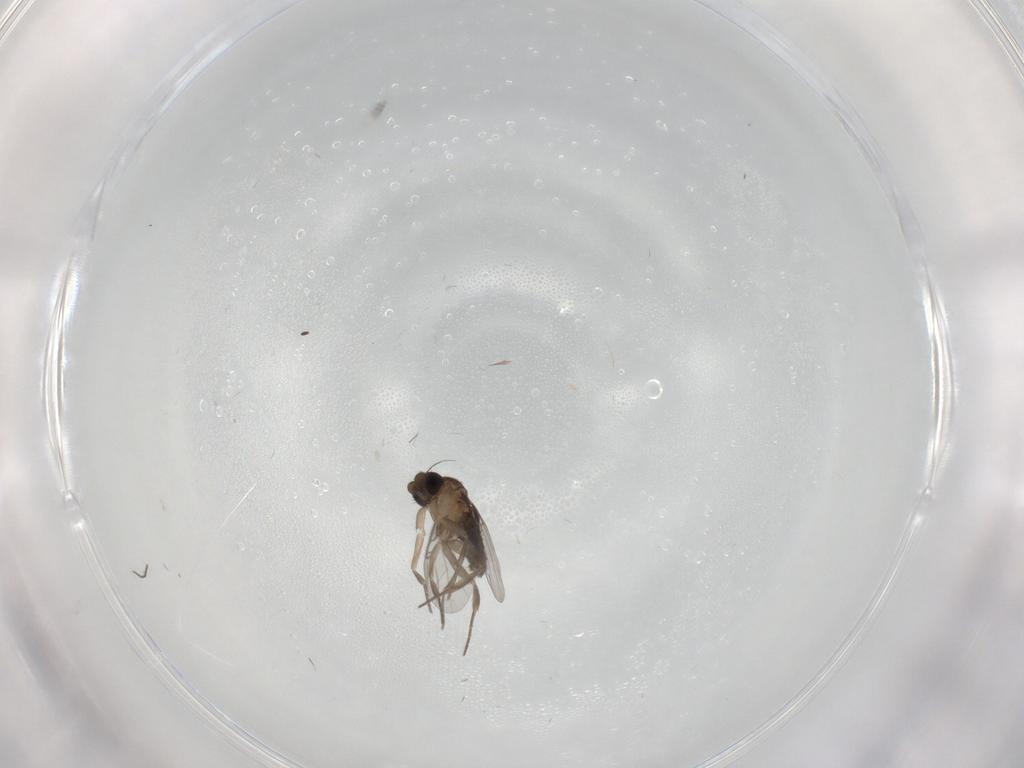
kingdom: Animalia
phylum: Arthropoda
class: Insecta
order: Diptera
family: Chironomidae
